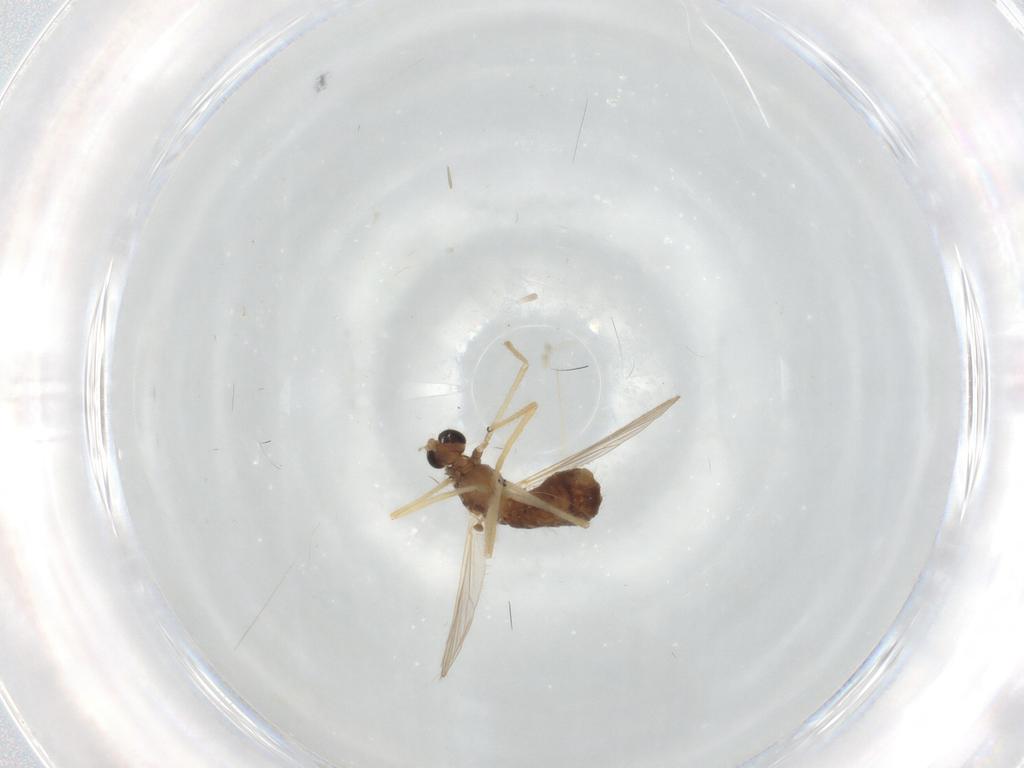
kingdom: Animalia
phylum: Arthropoda
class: Insecta
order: Diptera
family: Chironomidae
